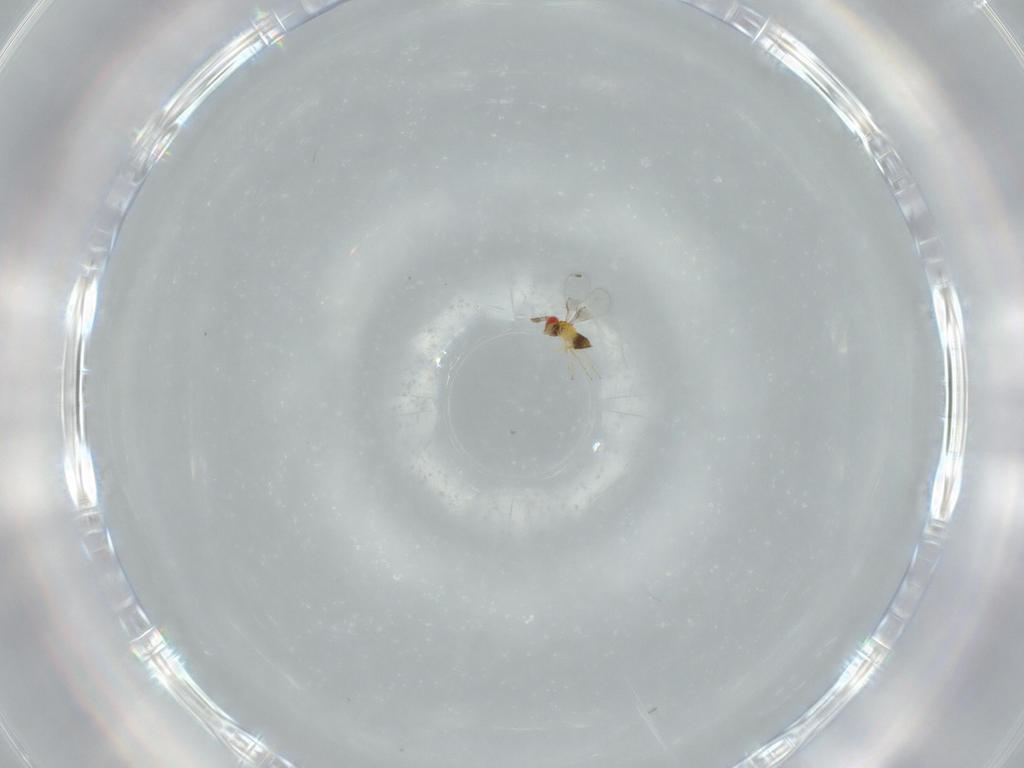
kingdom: Animalia
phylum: Arthropoda
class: Insecta
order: Hymenoptera
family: Trichogrammatidae
